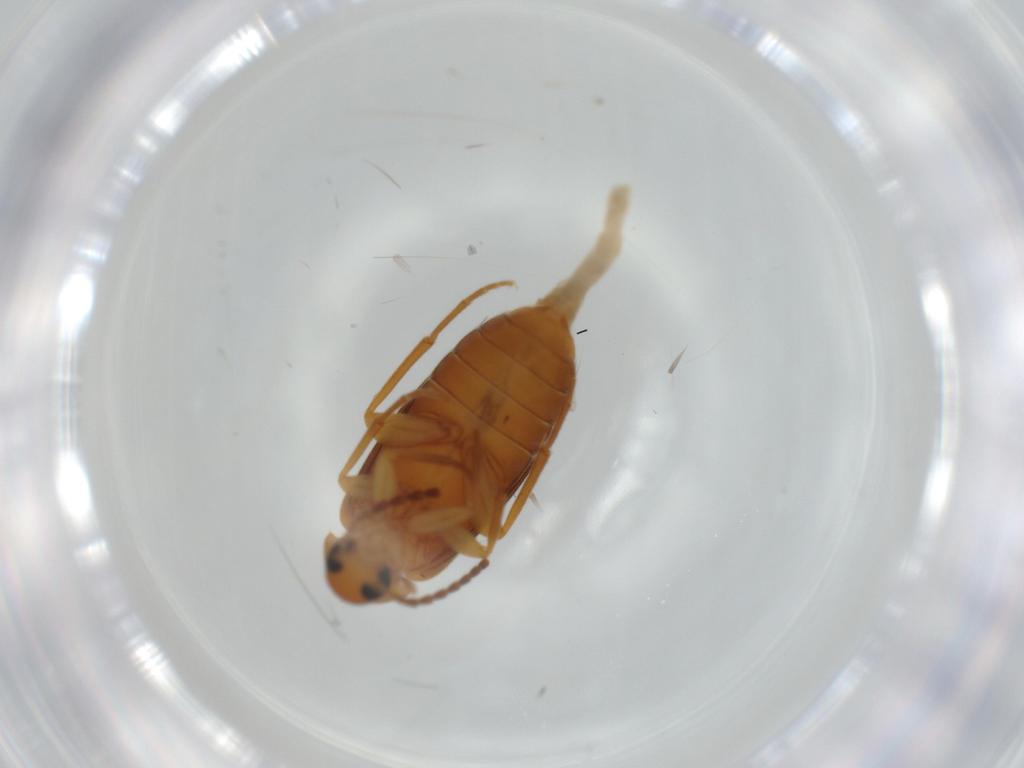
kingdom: Animalia
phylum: Arthropoda
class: Insecta
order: Coleoptera
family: Scraptiidae
